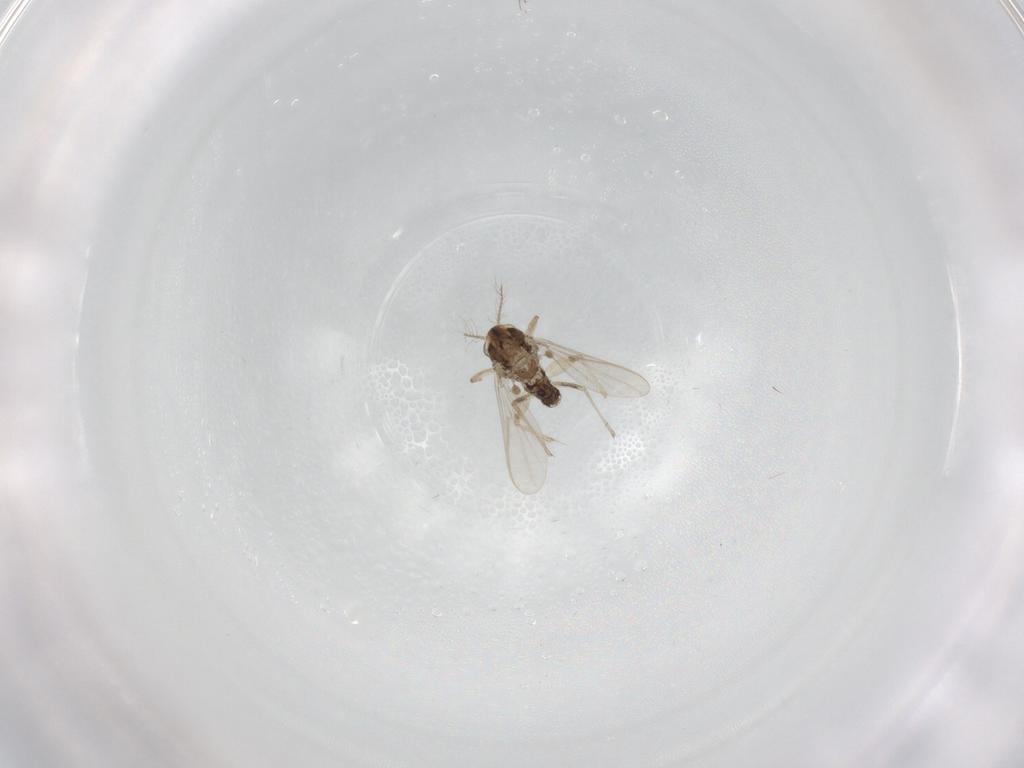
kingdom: Animalia
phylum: Arthropoda
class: Insecta
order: Diptera
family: Chironomidae
